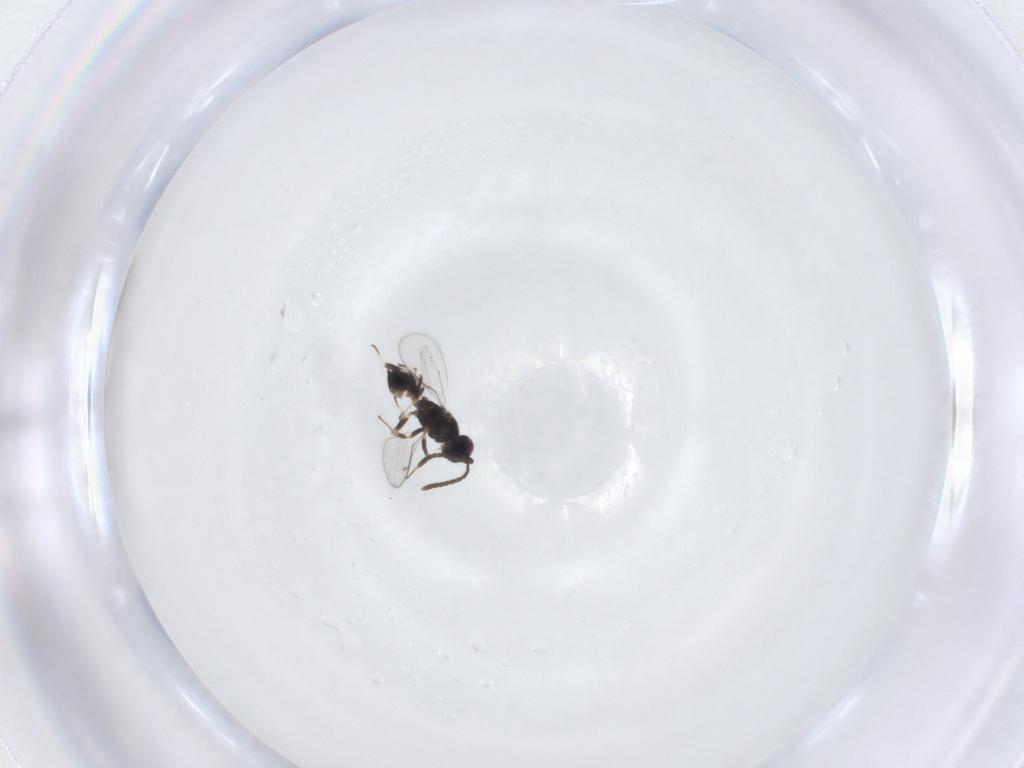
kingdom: Animalia
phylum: Arthropoda
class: Insecta
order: Hymenoptera
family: Eupelmidae
